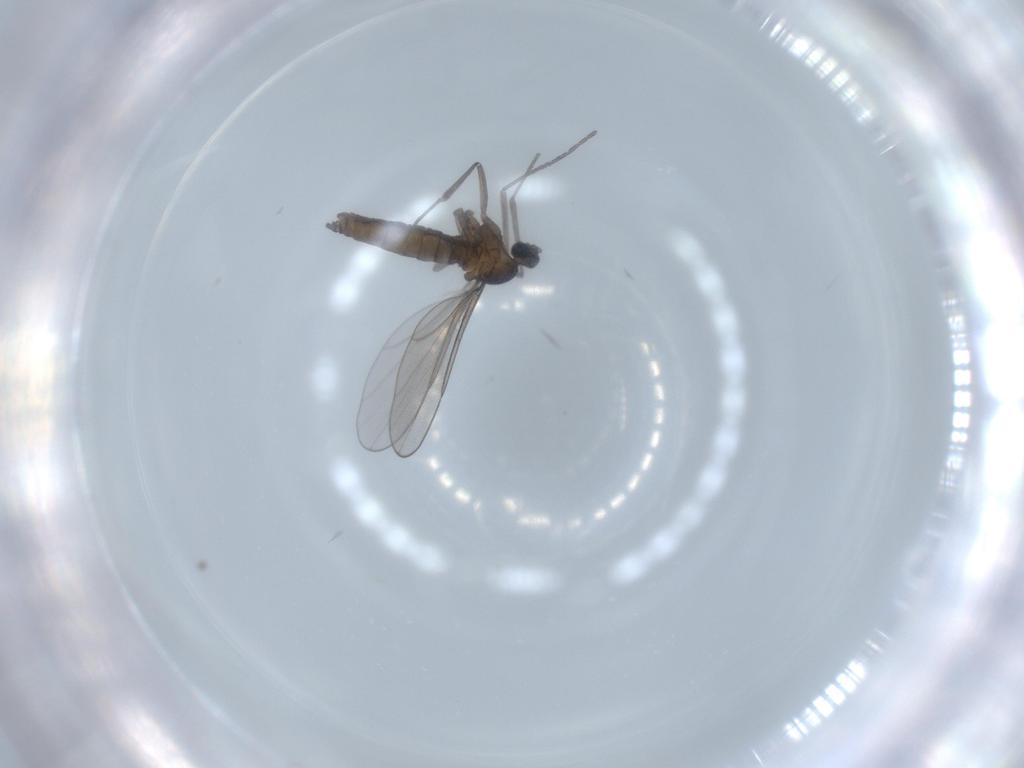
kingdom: Animalia
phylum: Arthropoda
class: Insecta
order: Diptera
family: Cecidomyiidae
